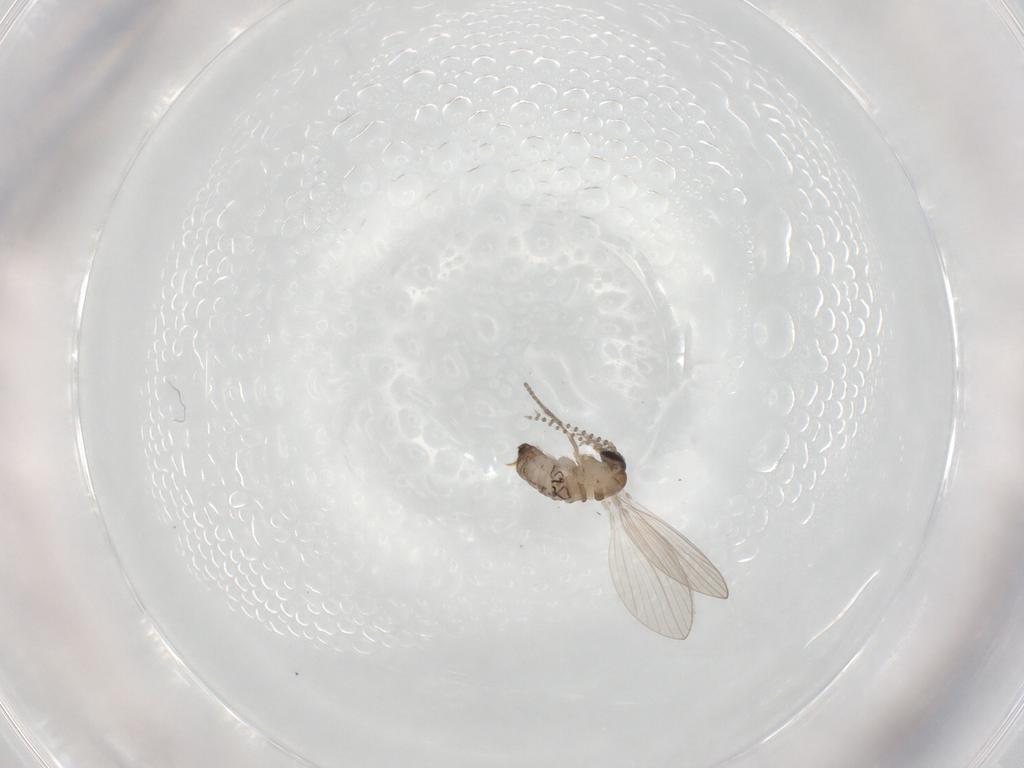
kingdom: Animalia
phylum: Arthropoda
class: Insecta
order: Diptera
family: Psychodidae
